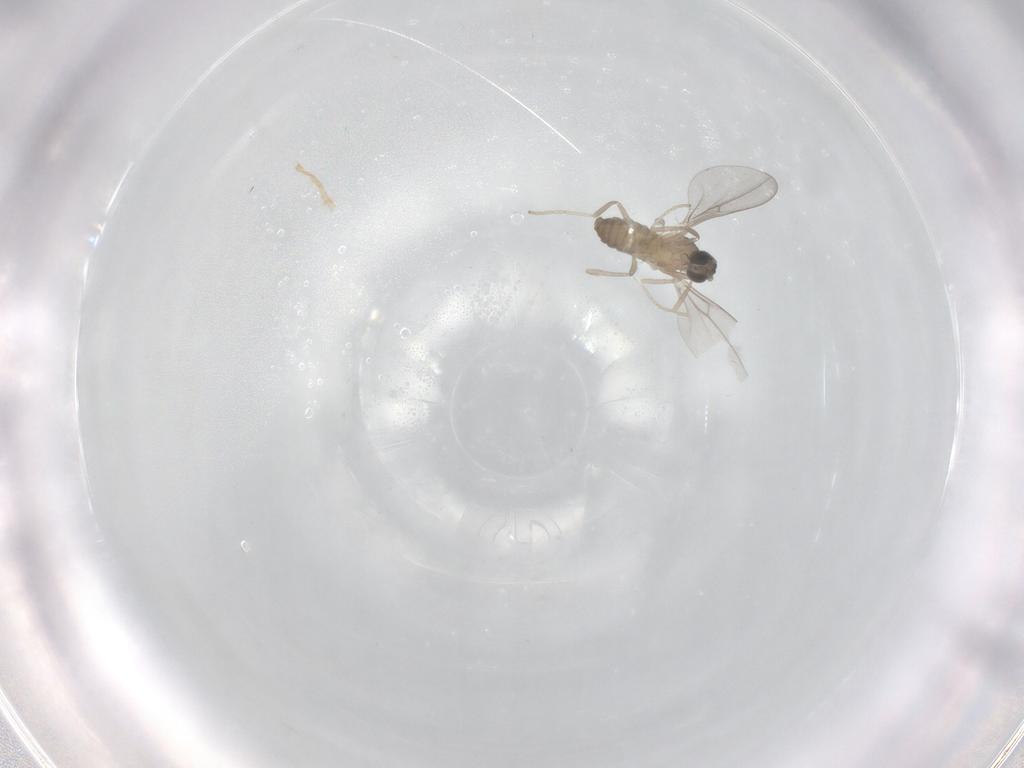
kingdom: Animalia
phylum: Arthropoda
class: Insecta
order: Diptera
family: Cecidomyiidae
